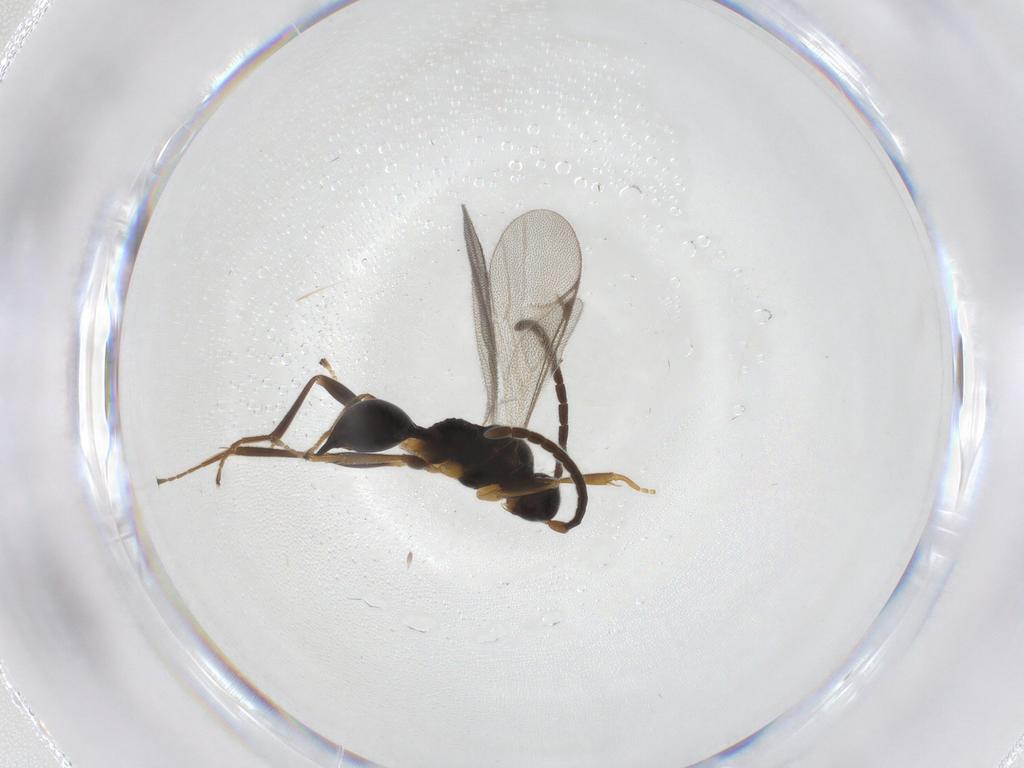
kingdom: Animalia
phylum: Arthropoda
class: Insecta
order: Hymenoptera
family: Proctotrupidae
